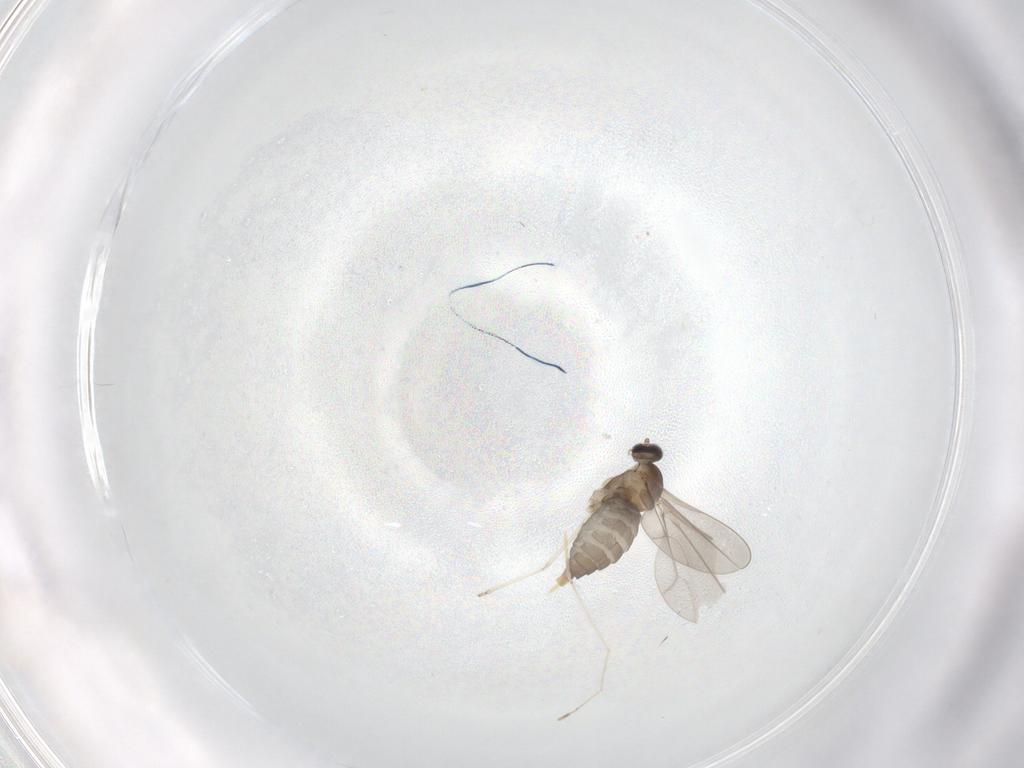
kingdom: Animalia
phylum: Arthropoda
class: Insecta
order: Diptera
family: Cecidomyiidae
